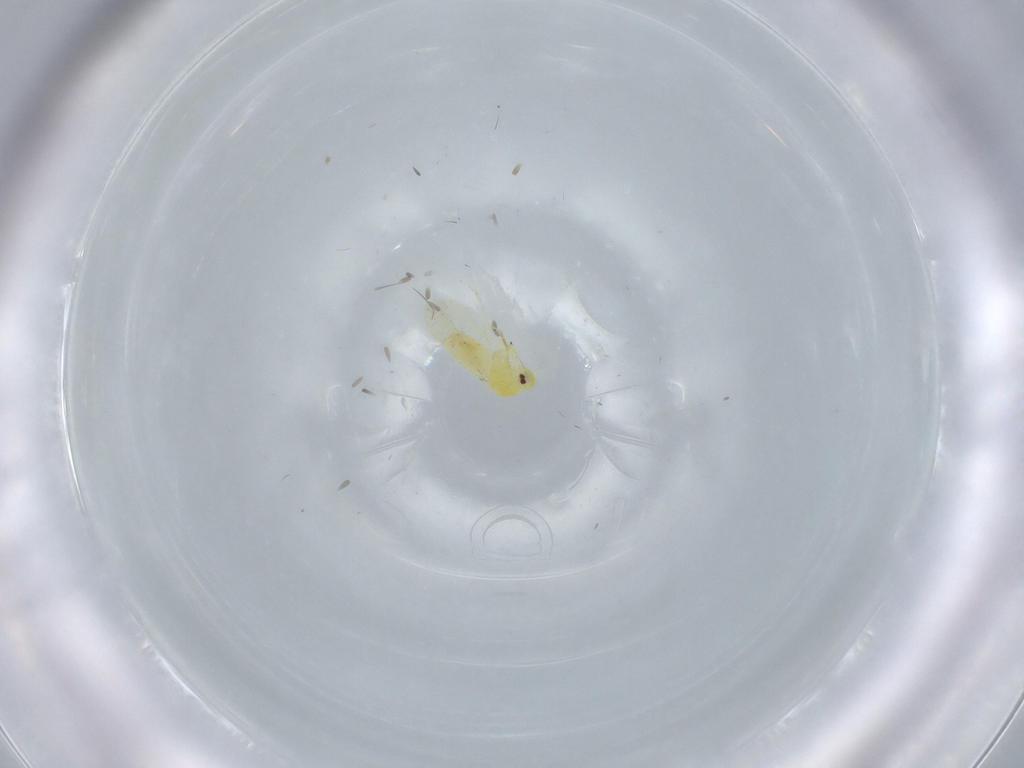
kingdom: Animalia
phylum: Arthropoda
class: Insecta
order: Hemiptera
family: Aleyrodidae
